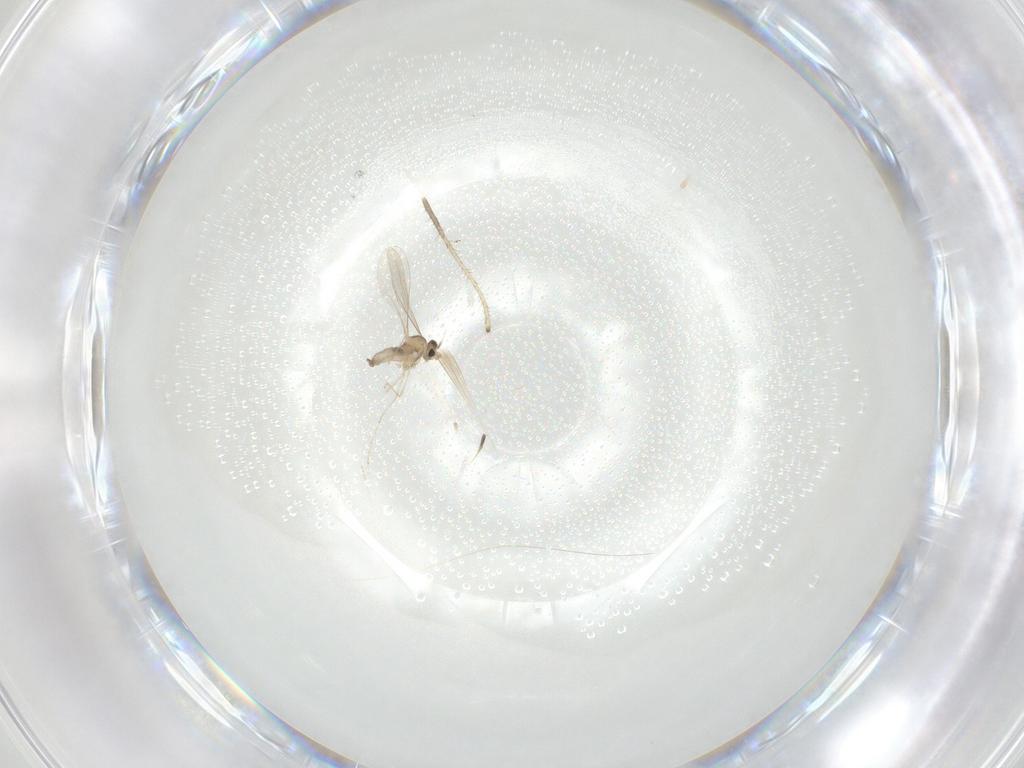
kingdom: Animalia
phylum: Arthropoda
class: Insecta
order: Diptera
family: Cecidomyiidae
